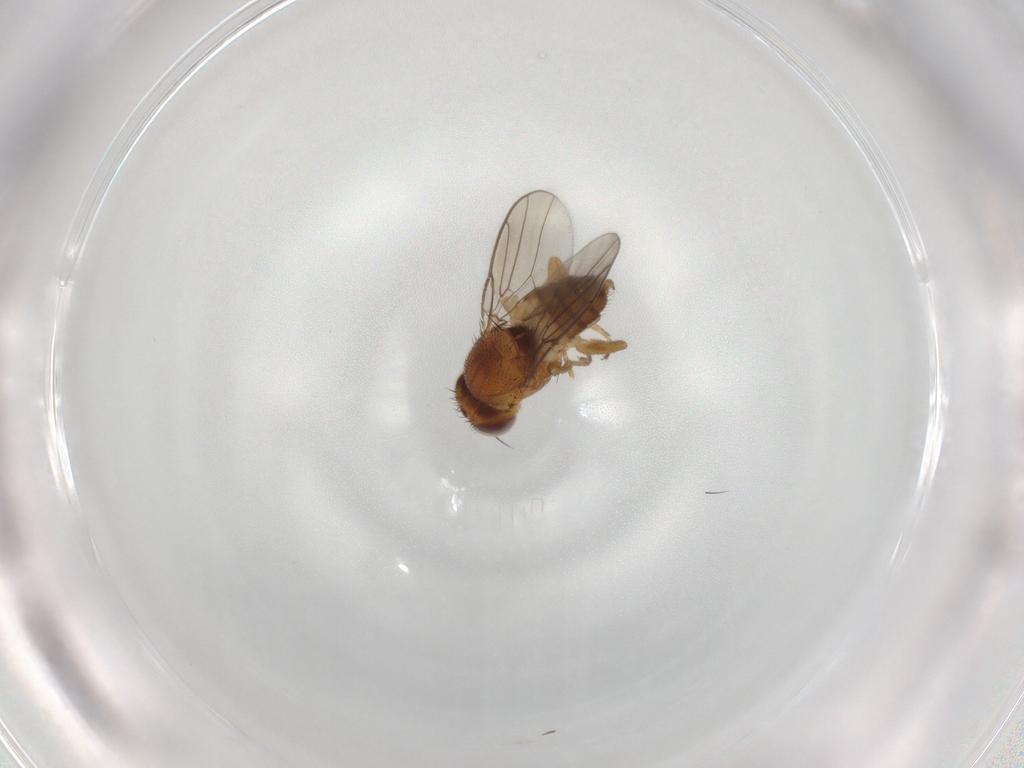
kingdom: Animalia
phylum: Arthropoda
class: Insecta
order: Diptera
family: Chloropidae
